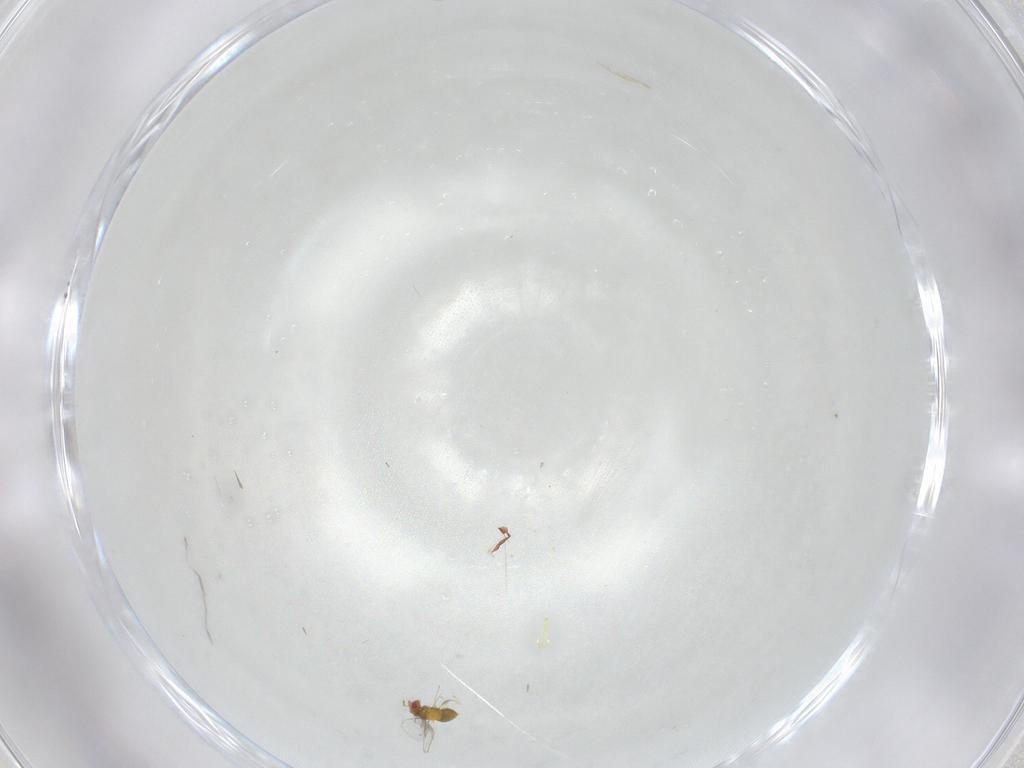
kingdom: Animalia
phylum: Arthropoda
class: Insecta
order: Hymenoptera
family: Trichogrammatidae
